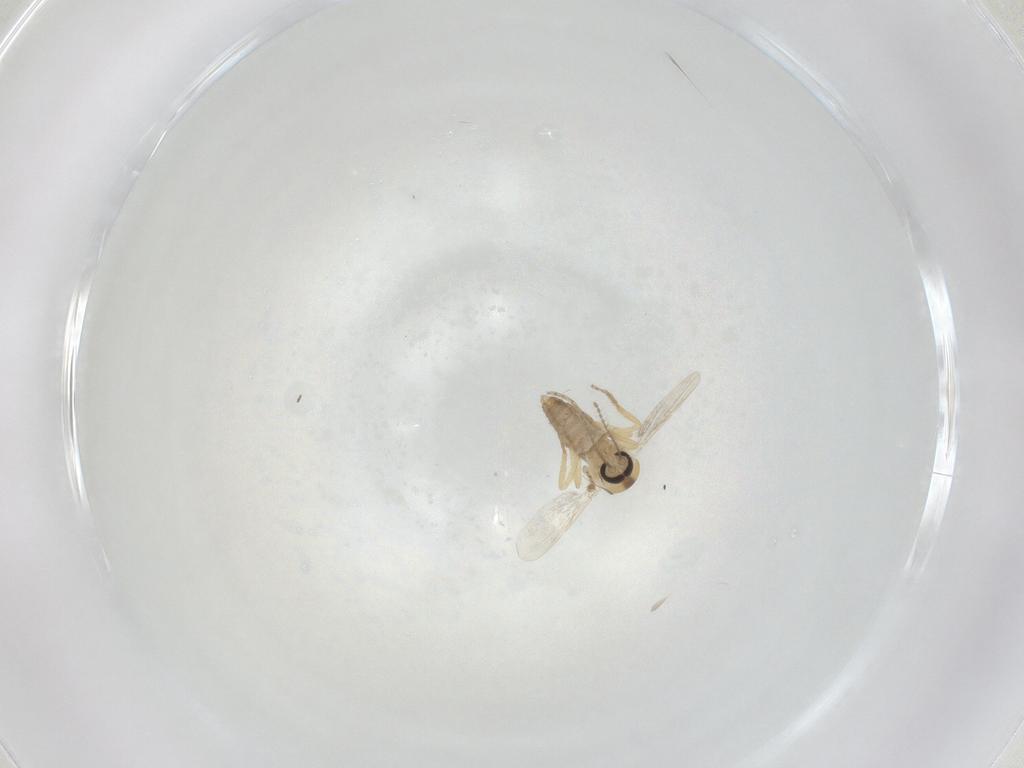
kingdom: Animalia
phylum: Arthropoda
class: Insecta
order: Diptera
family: Ceratopogonidae
